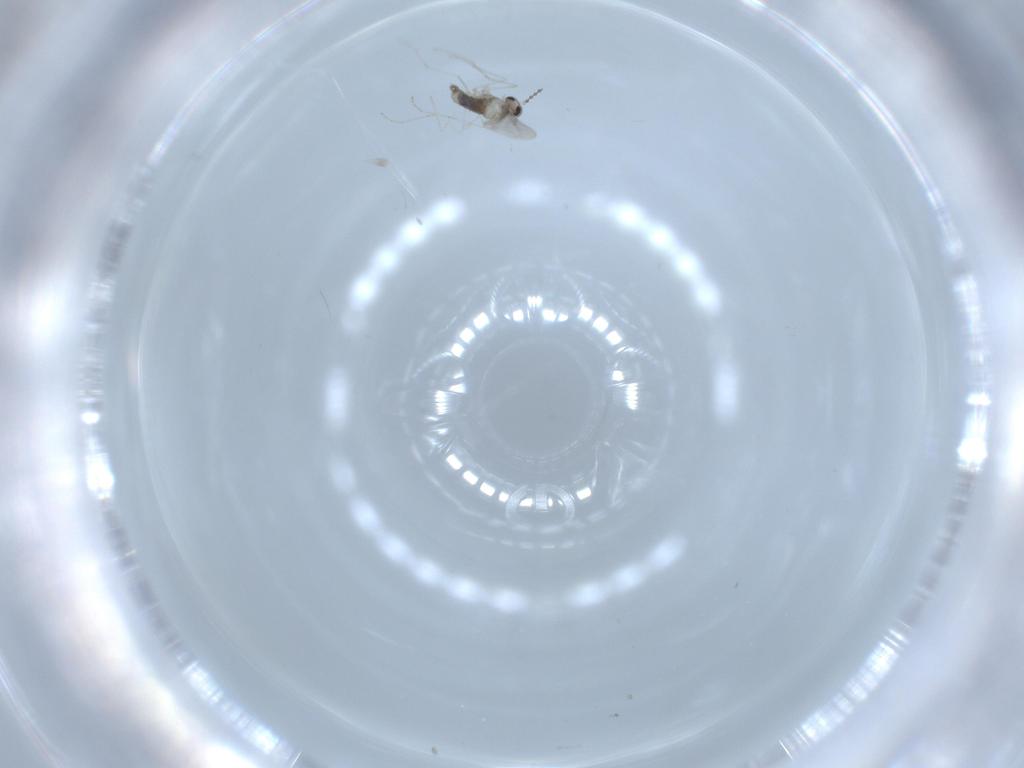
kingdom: Animalia
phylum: Arthropoda
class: Insecta
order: Diptera
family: Cecidomyiidae
